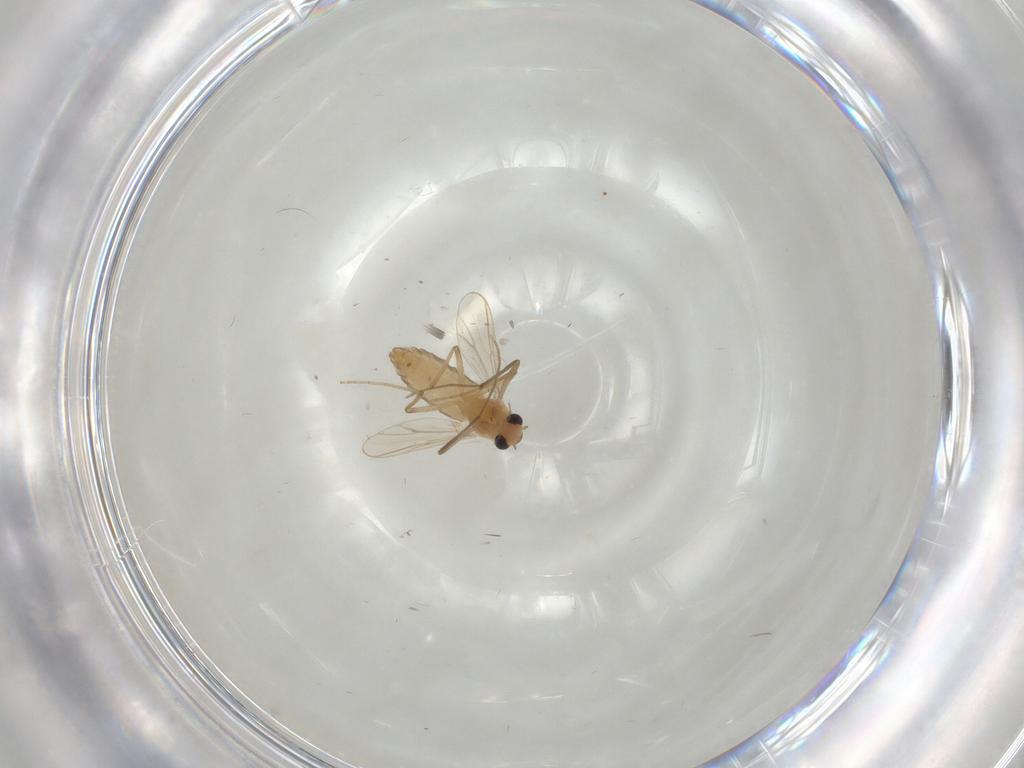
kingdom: Animalia
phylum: Arthropoda
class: Insecta
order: Diptera
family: Chironomidae
